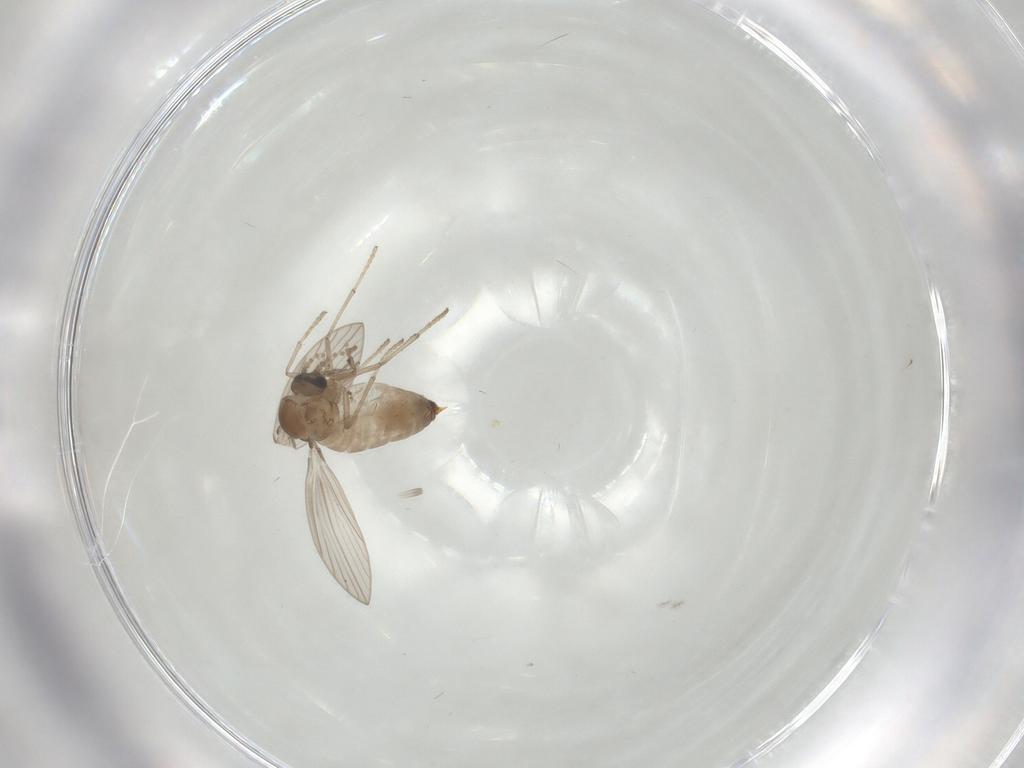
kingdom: Animalia
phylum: Arthropoda
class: Insecta
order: Diptera
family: Psychodidae
